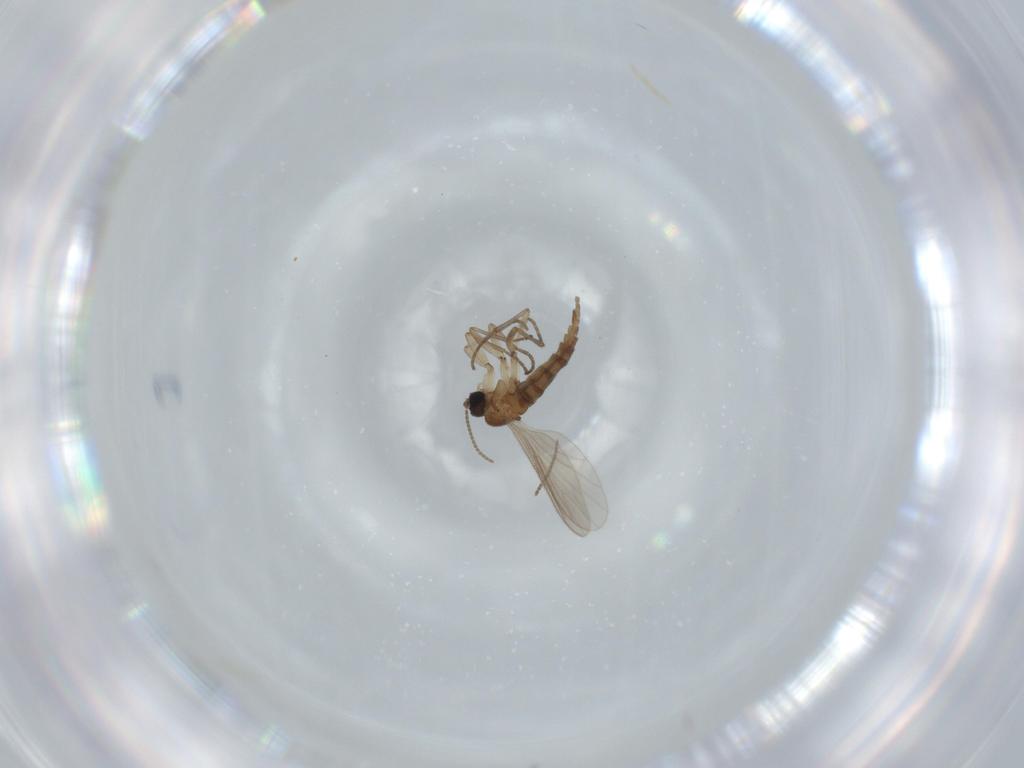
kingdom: Animalia
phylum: Arthropoda
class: Insecta
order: Diptera
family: Sciaridae
